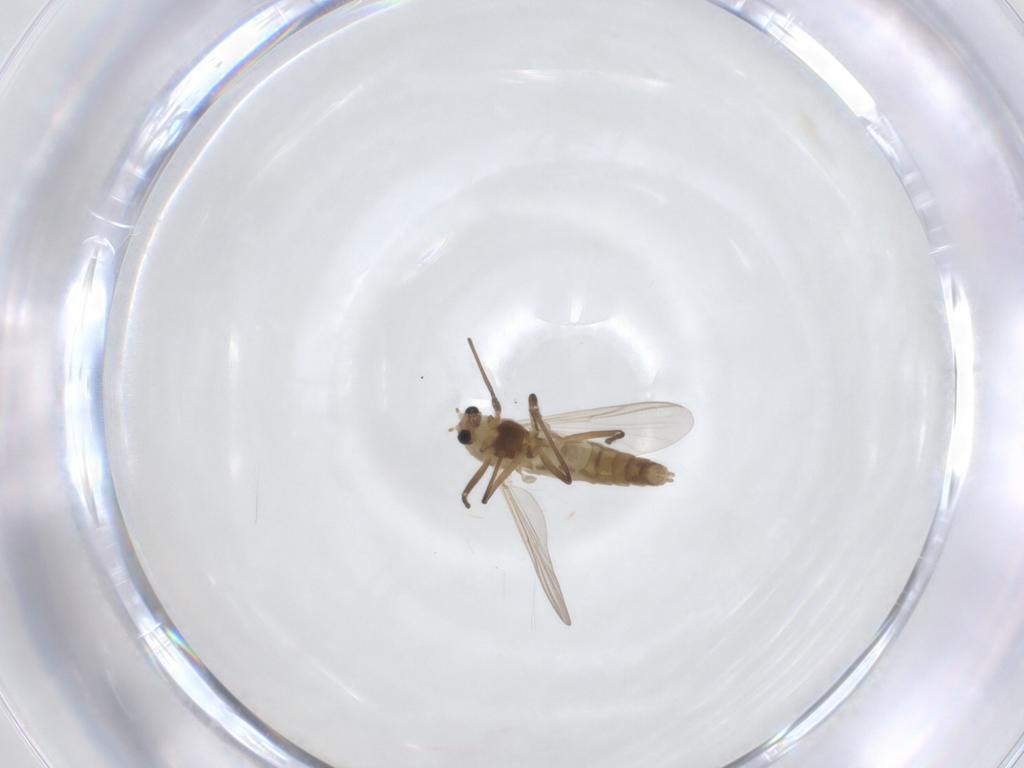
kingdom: Animalia
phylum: Arthropoda
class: Insecta
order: Diptera
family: Chironomidae
